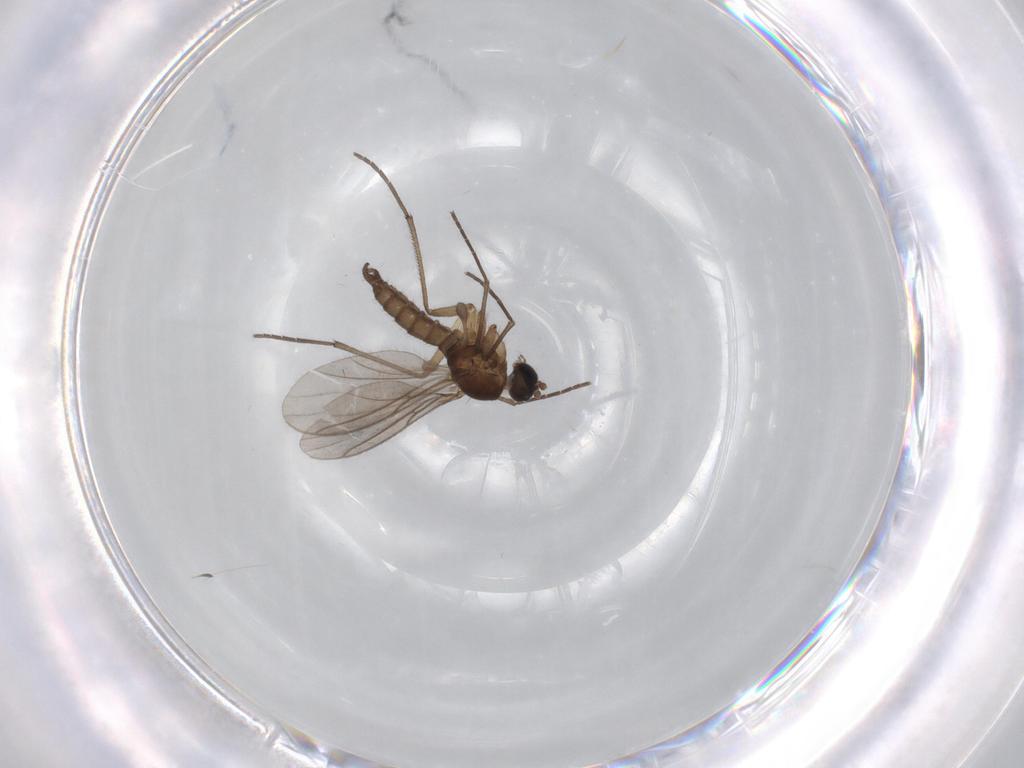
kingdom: Animalia
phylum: Arthropoda
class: Insecta
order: Diptera
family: Sciaridae
